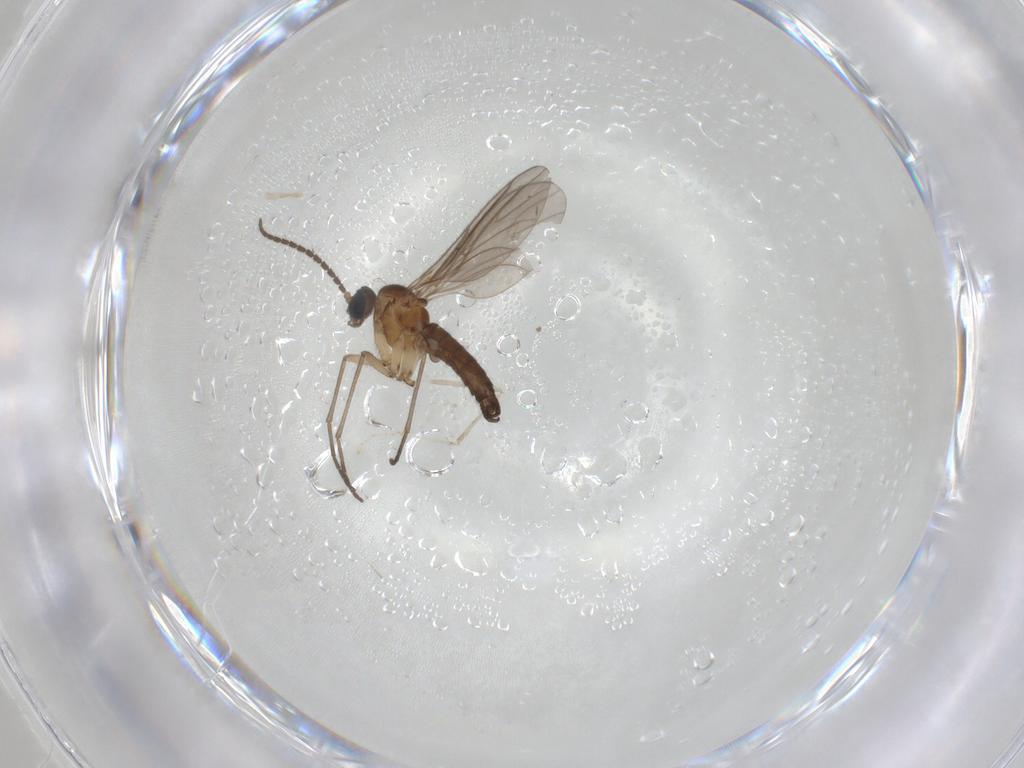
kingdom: Animalia
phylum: Arthropoda
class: Insecta
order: Diptera
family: Sciaridae
